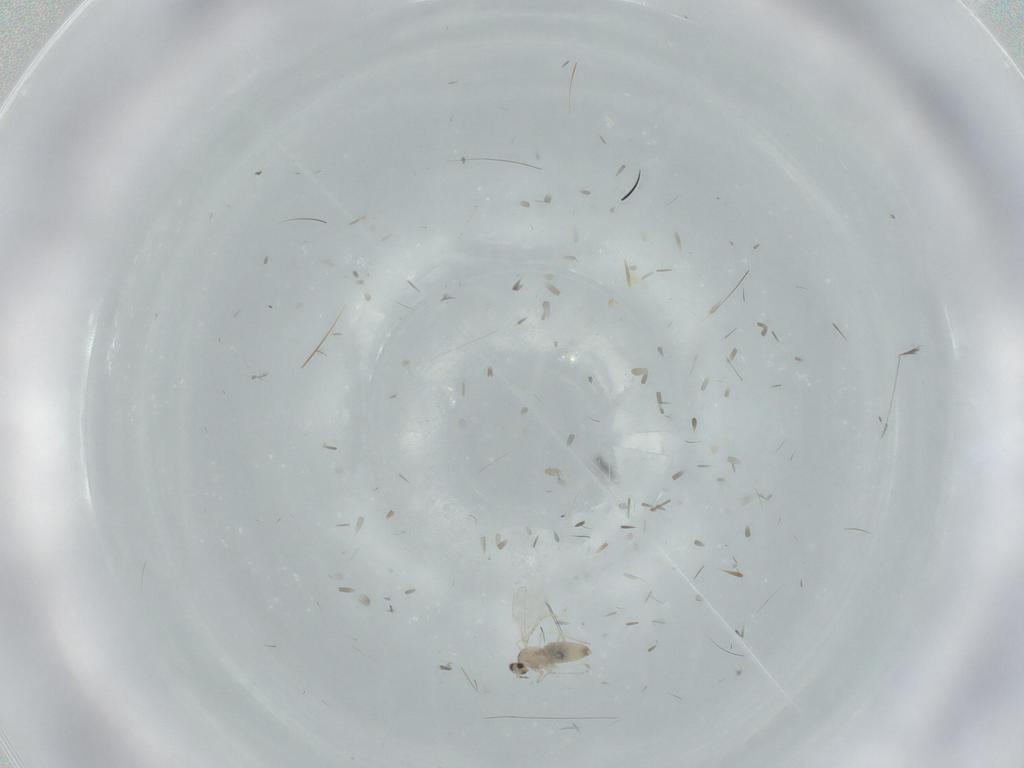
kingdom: Animalia
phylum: Arthropoda
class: Insecta
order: Diptera
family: Cecidomyiidae
